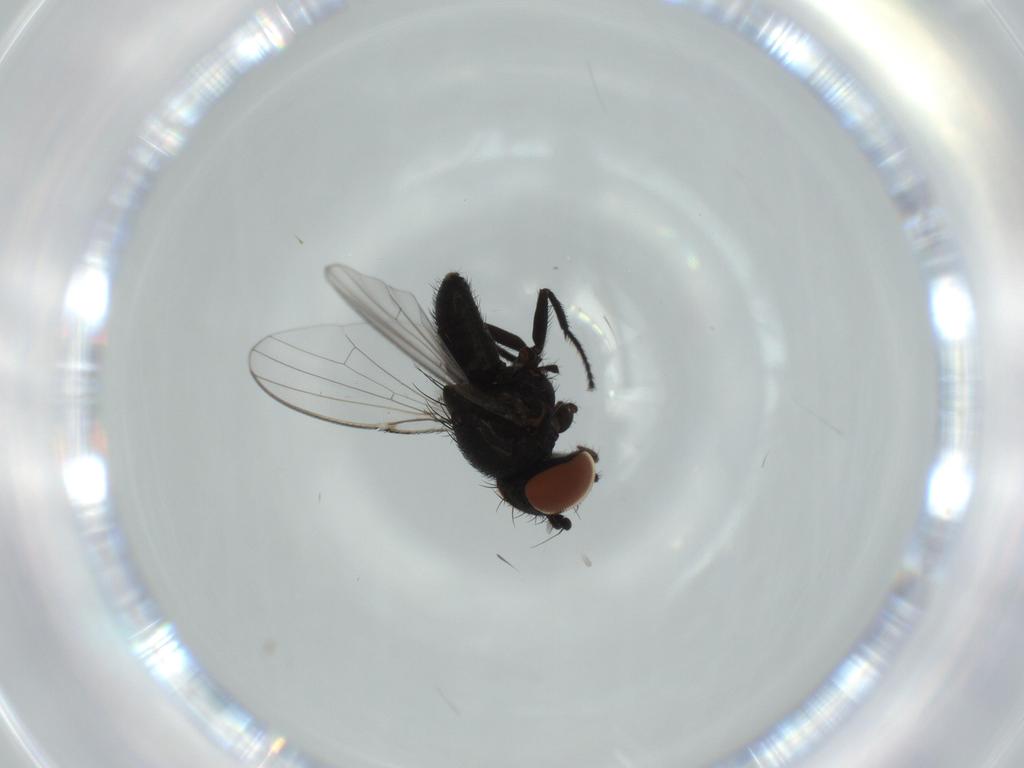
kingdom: Animalia
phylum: Arthropoda
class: Insecta
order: Diptera
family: Milichiidae
